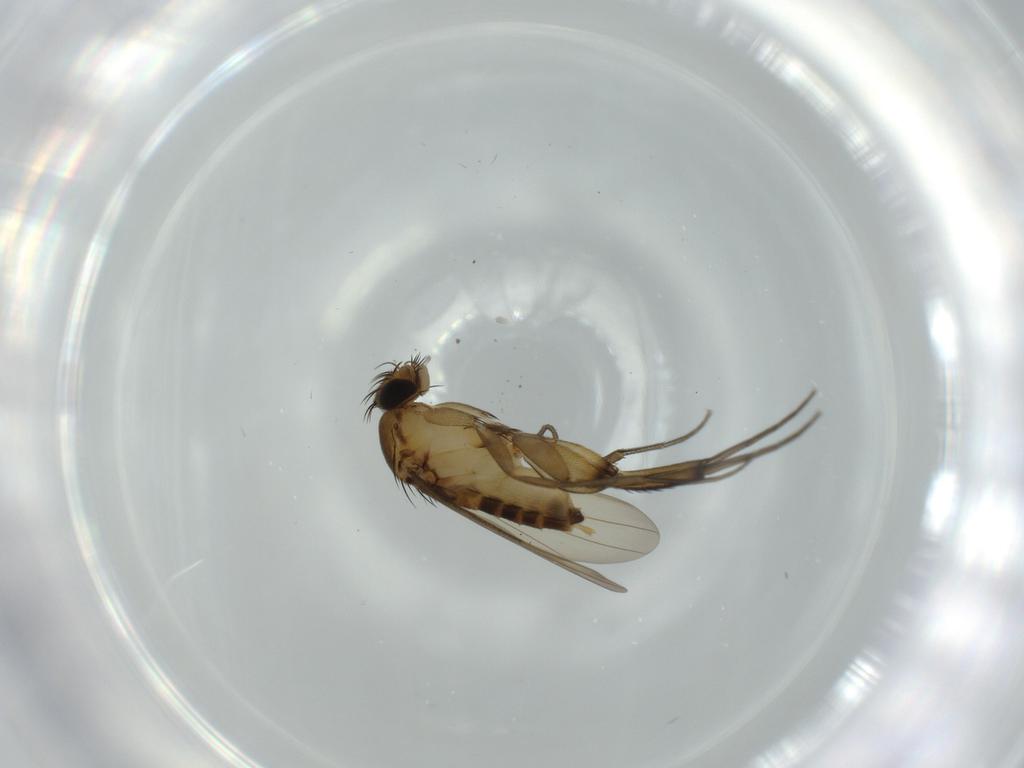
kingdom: Animalia
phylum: Arthropoda
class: Insecta
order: Diptera
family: Phoridae
